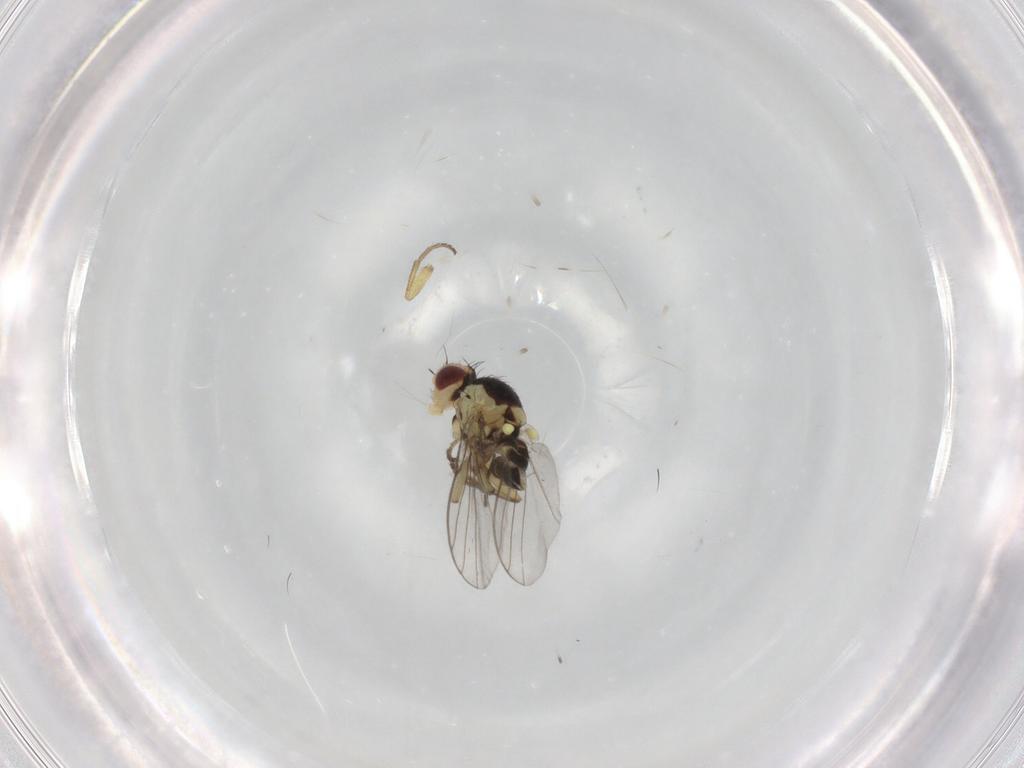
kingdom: Animalia
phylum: Arthropoda
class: Insecta
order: Diptera
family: Agromyzidae
